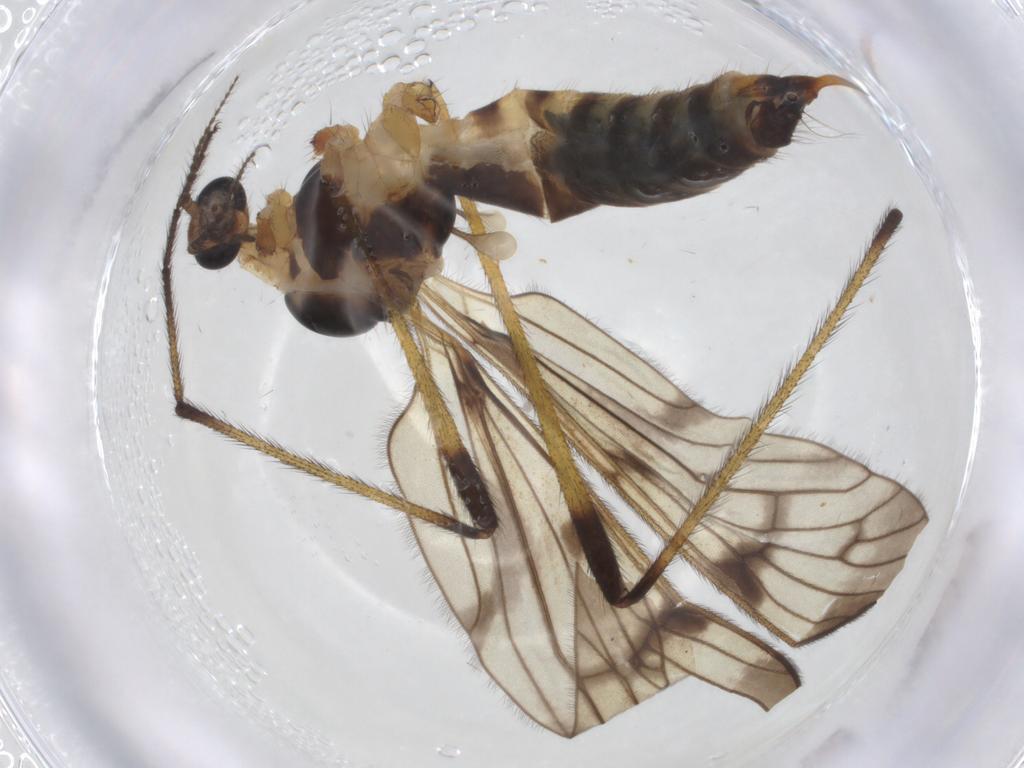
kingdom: Animalia
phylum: Arthropoda
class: Insecta
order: Diptera
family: Limoniidae
